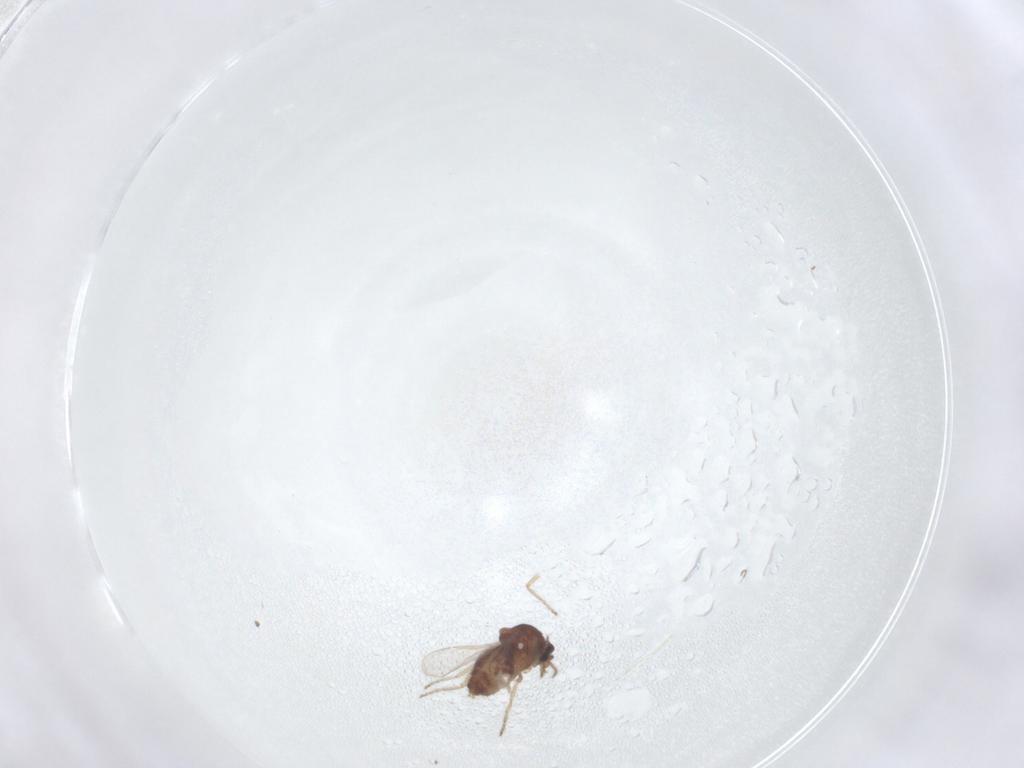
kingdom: Animalia
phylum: Arthropoda
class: Insecta
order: Diptera
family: Ceratopogonidae
